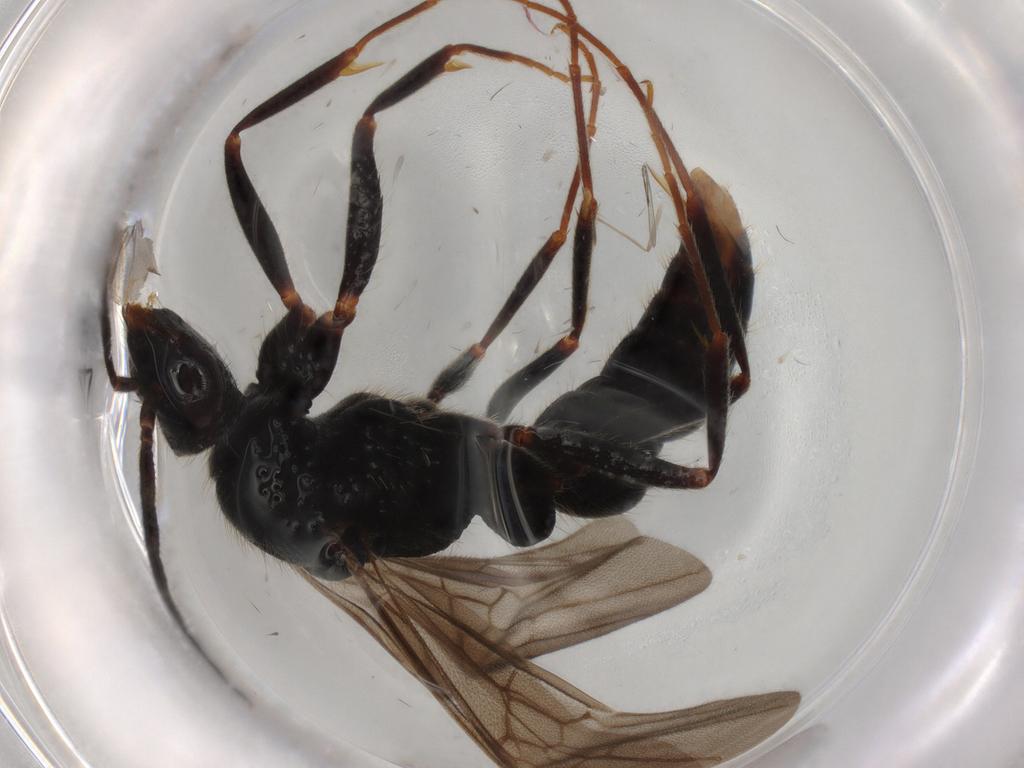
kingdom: Animalia
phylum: Arthropoda
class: Insecta
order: Hymenoptera
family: Formicidae
